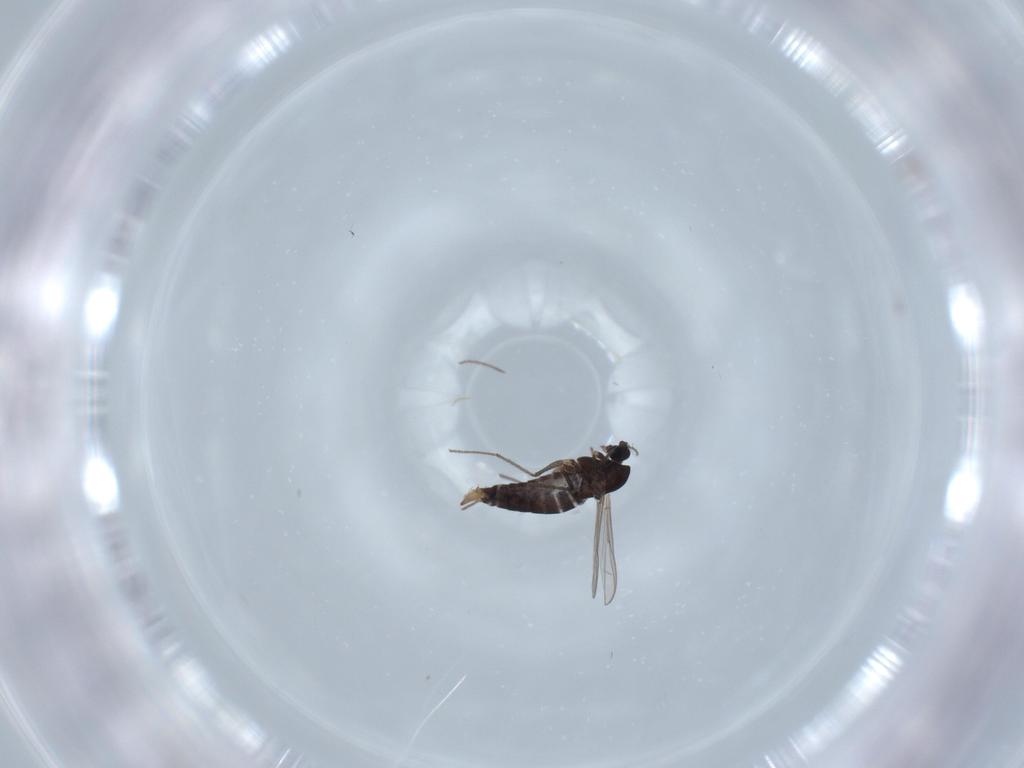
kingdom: Animalia
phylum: Arthropoda
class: Insecta
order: Diptera
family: Chironomidae
